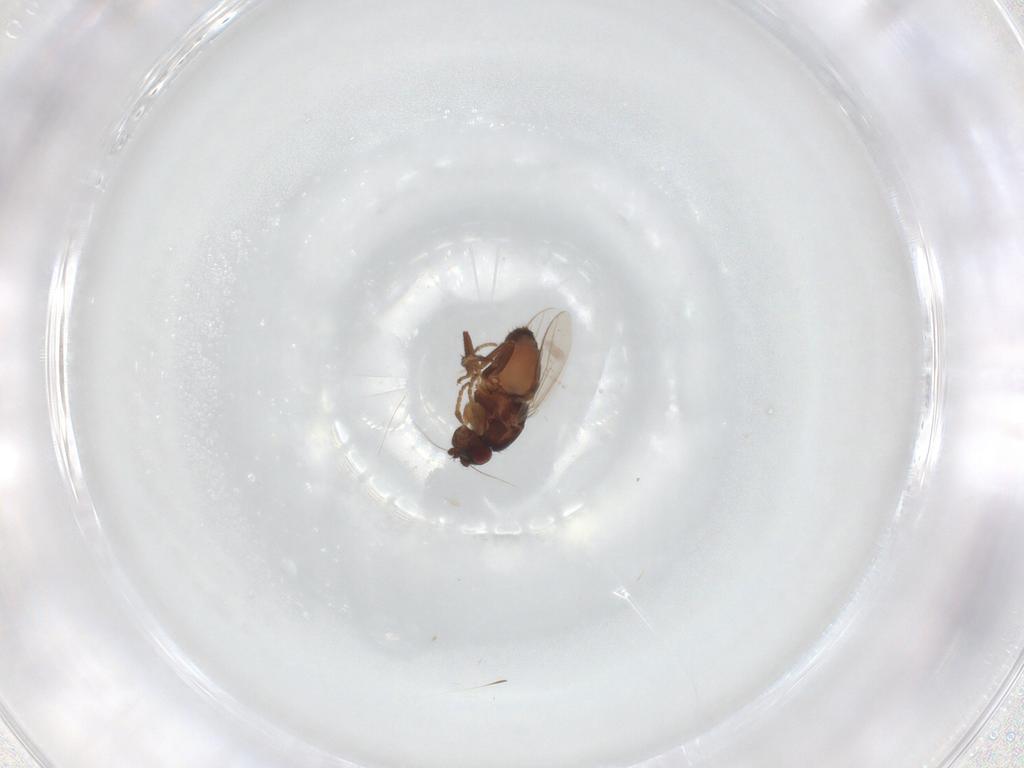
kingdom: Animalia
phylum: Arthropoda
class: Insecta
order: Diptera
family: Sphaeroceridae
